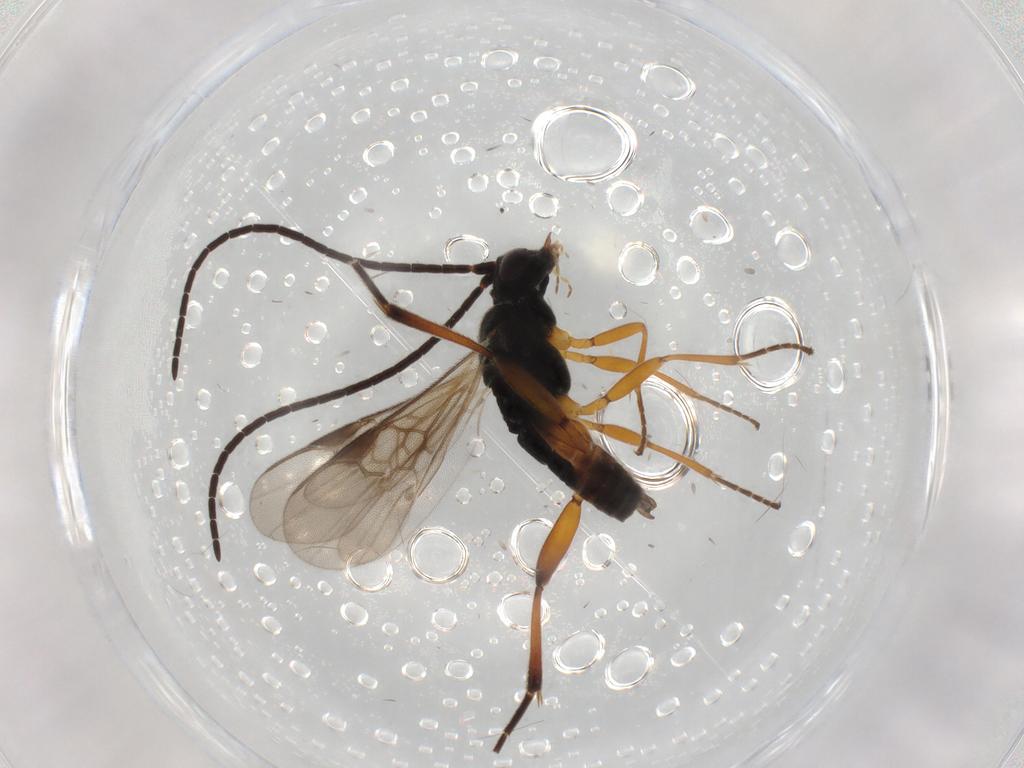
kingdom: Animalia
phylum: Arthropoda
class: Insecta
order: Hymenoptera
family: Braconidae
